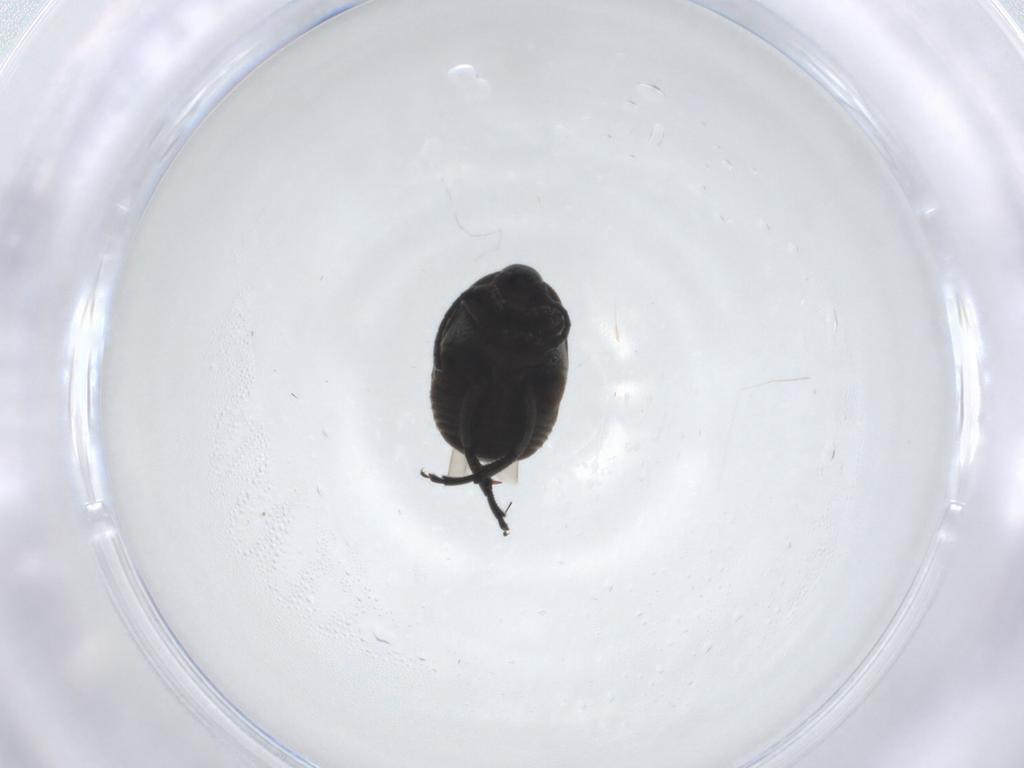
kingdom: Animalia
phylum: Arthropoda
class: Insecta
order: Coleoptera
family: Chrysomelidae
